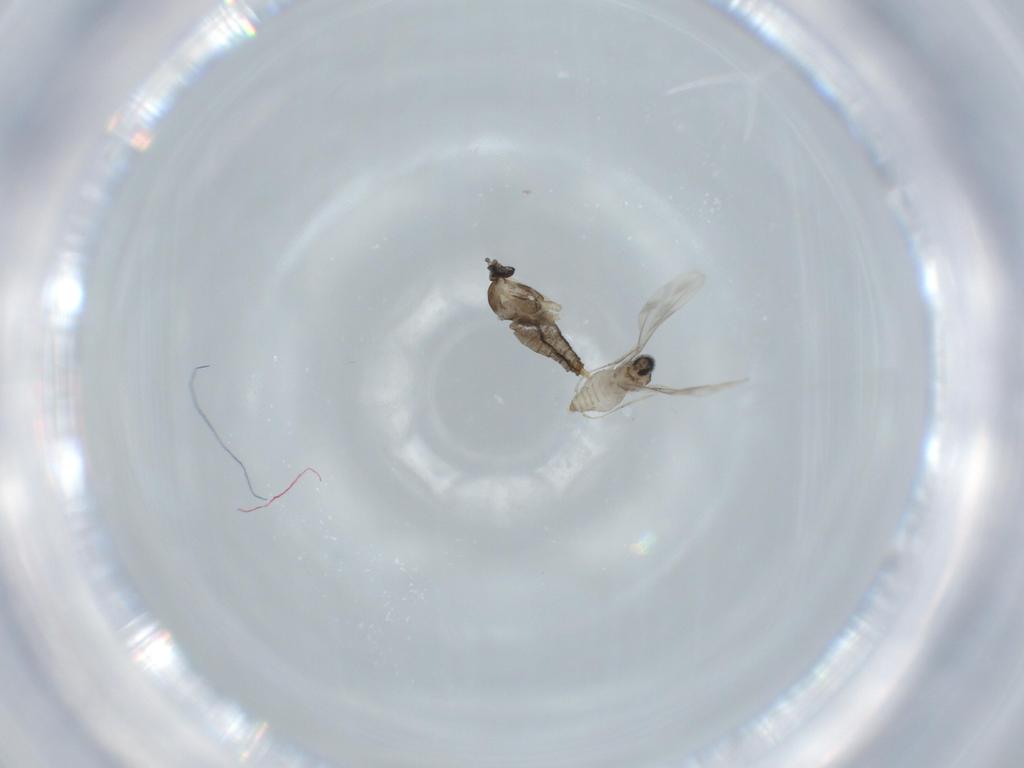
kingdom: Animalia
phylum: Arthropoda
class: Insecta
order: Diptera
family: Cecidomyiidae
